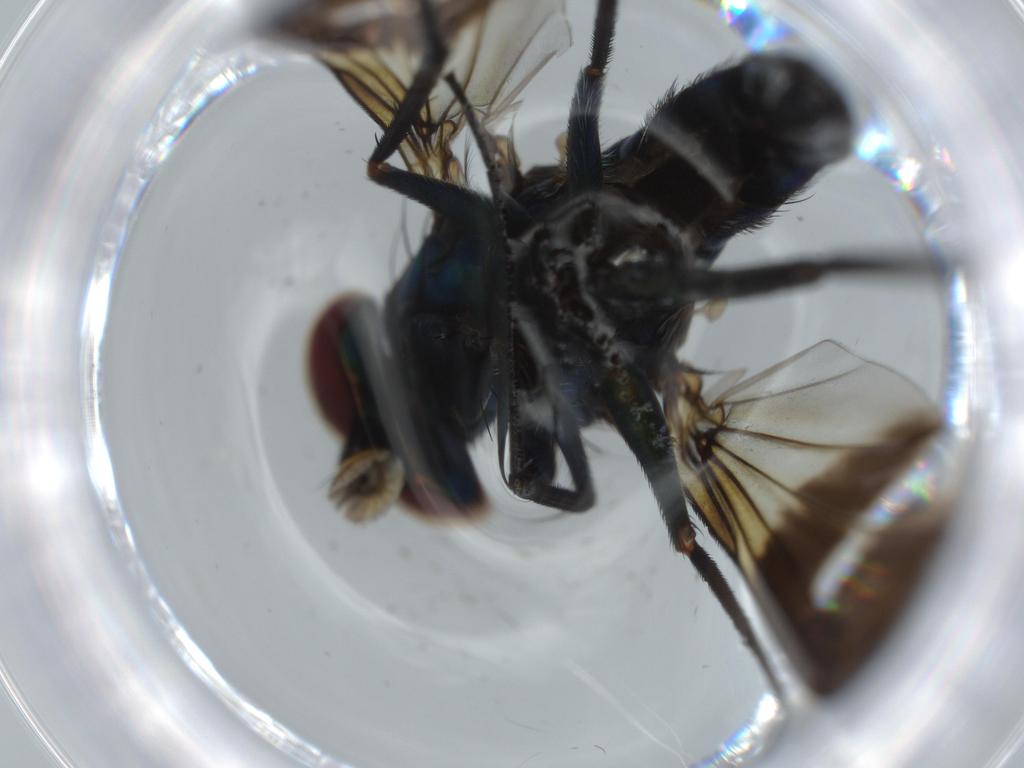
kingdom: Animalia
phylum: Arthropoda
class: Insecta
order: Diptera
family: Dolichopodidae
